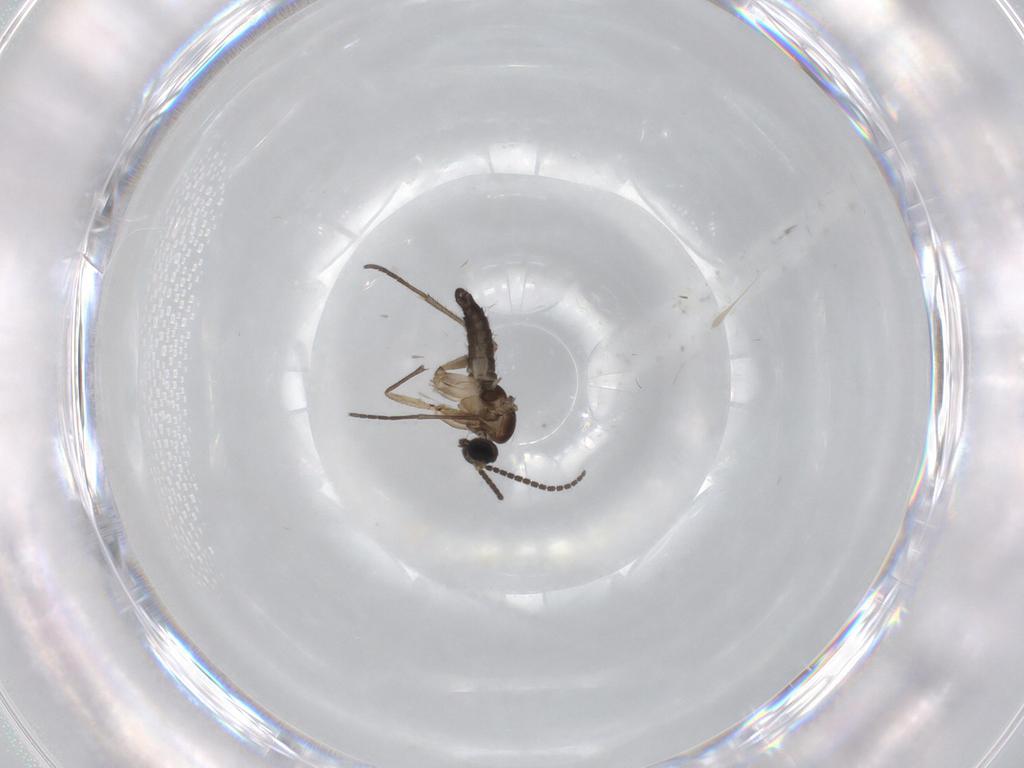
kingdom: Animalia
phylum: Arthropoda
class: Insecta
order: Diptera
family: Sciaridae
